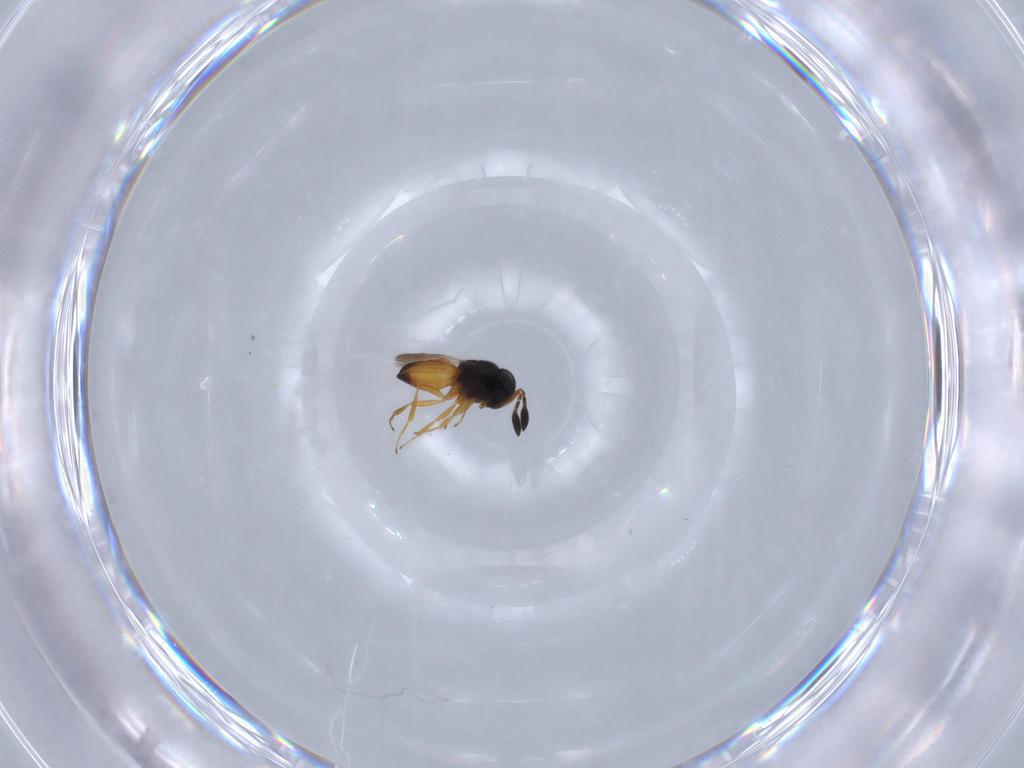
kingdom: Animalia
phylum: Arthropoda
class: Insecta
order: Hymenoptera
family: Scelionidae
